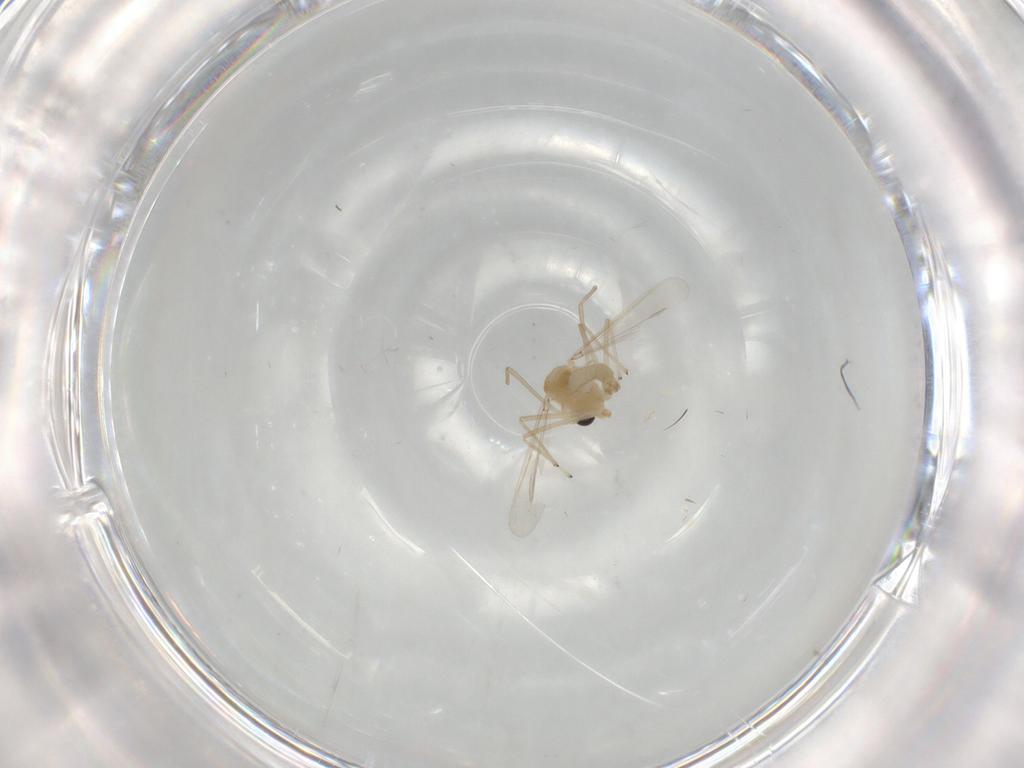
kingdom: Animalia
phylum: Arthropoda
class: Insecta
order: Diptera
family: Chironomidae
